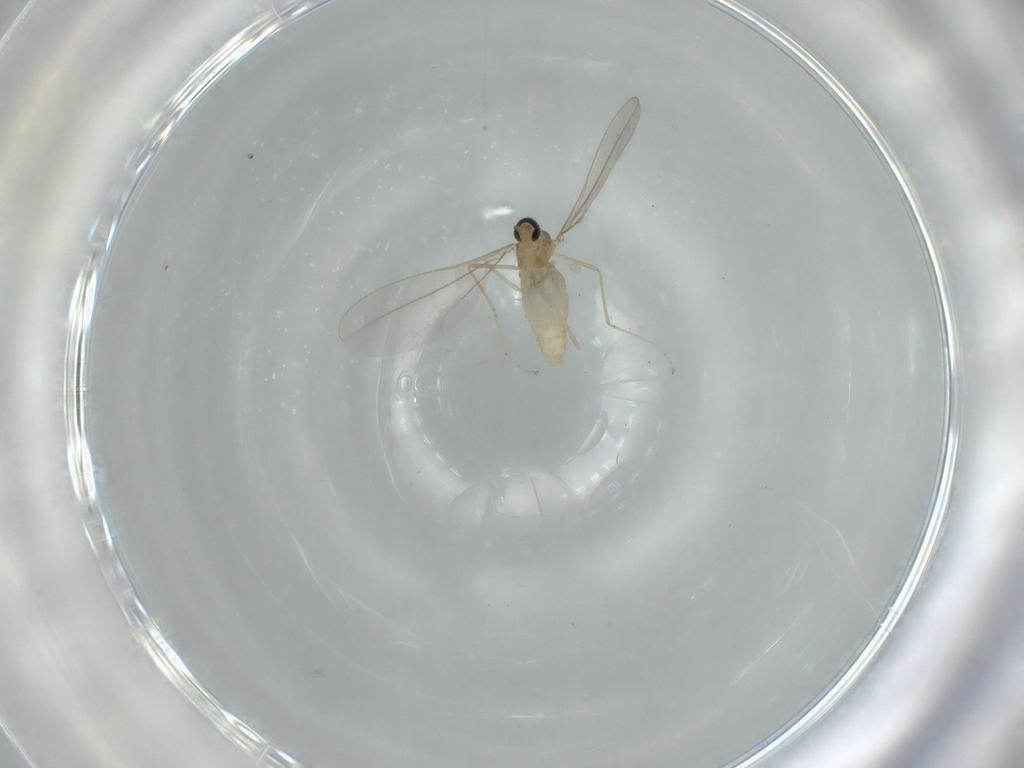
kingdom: Animalia
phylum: Arthropoda
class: Insecta
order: Diptera
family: Cecidomyiidae
